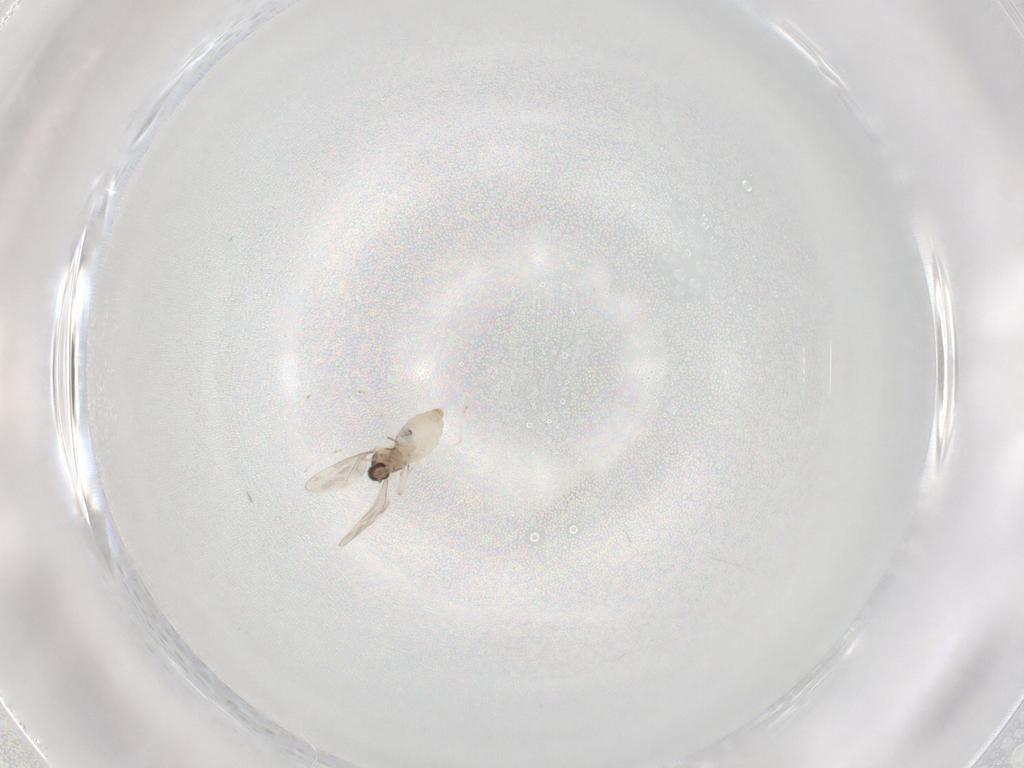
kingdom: Animalia
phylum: Arthropoda
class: Insecta
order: Diptera
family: Cecidomyiidae
